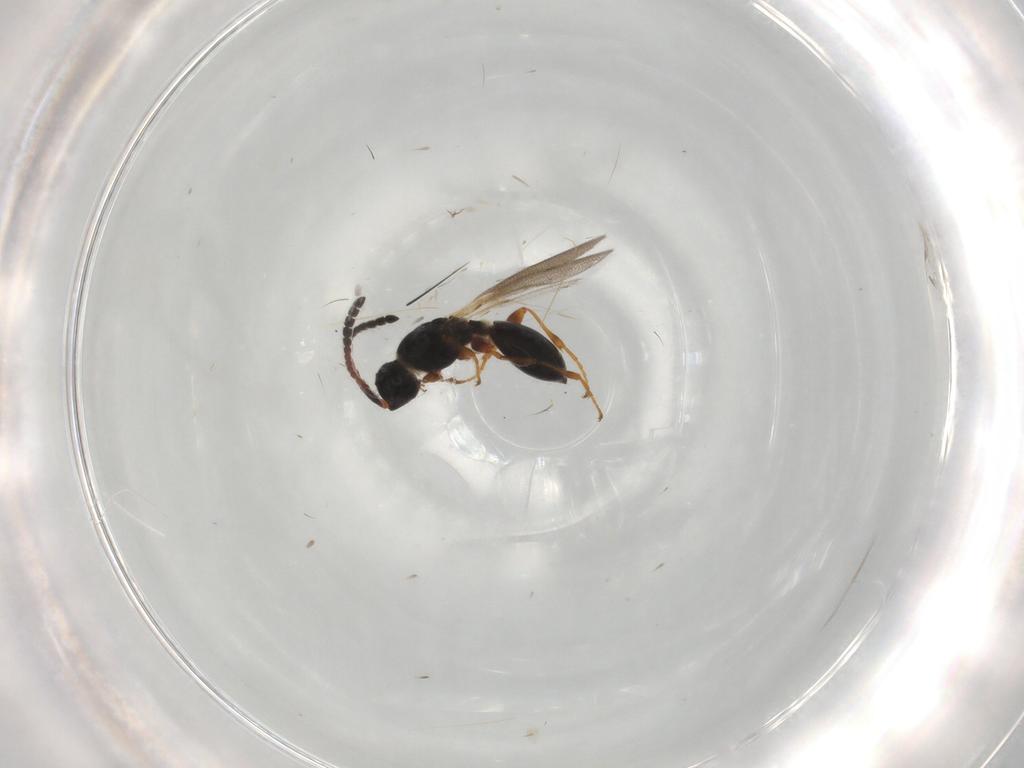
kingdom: Animalia
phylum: Arthropoda
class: Insecta
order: Hymenoptera
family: Diapriidae
